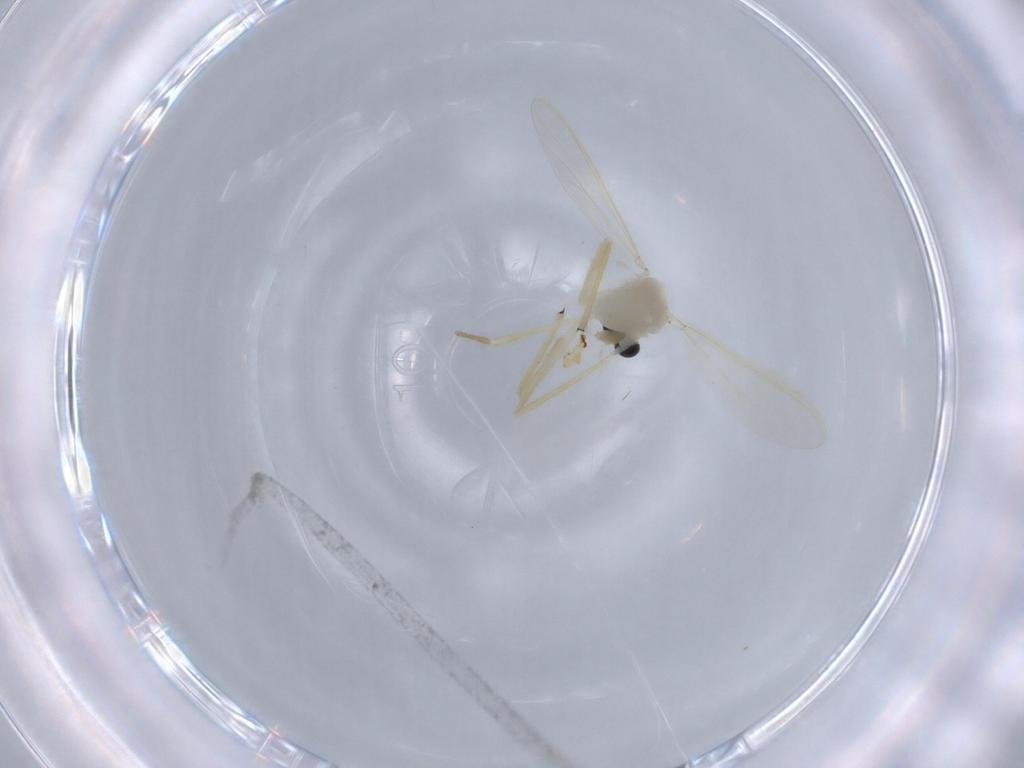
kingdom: Animalia
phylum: Arthropoda
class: Insecta
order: Diptera
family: Chironomidae
